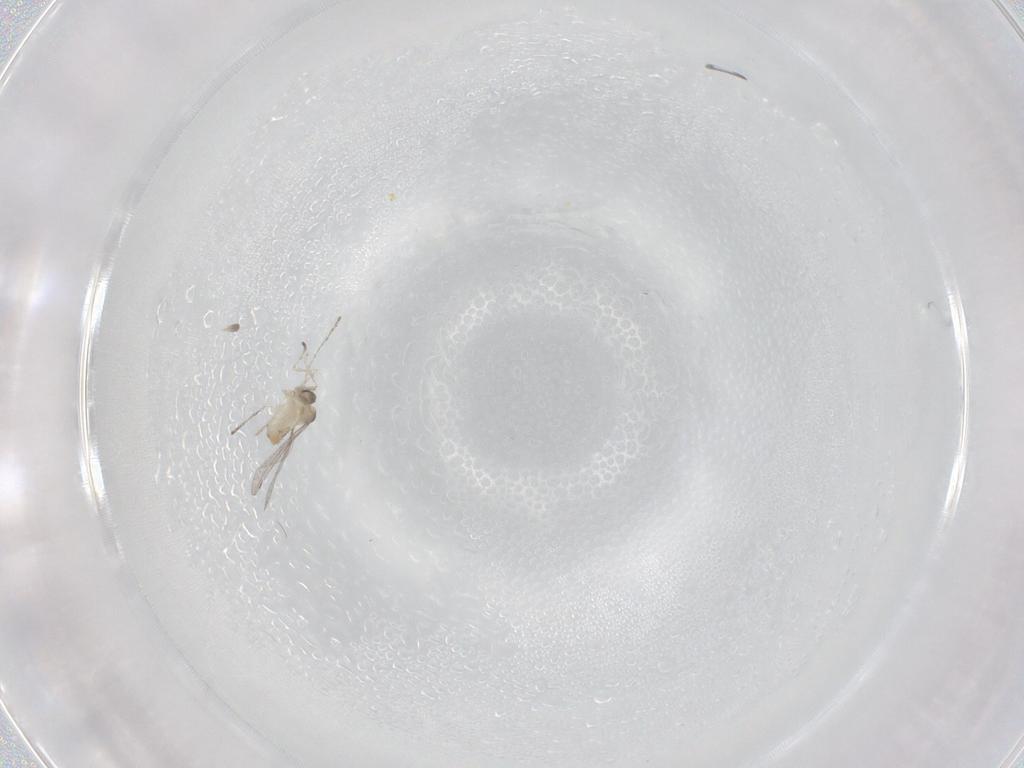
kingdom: Animalia
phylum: Arthropoda
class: Insecta
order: Diptera
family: Cecidomyiidae
